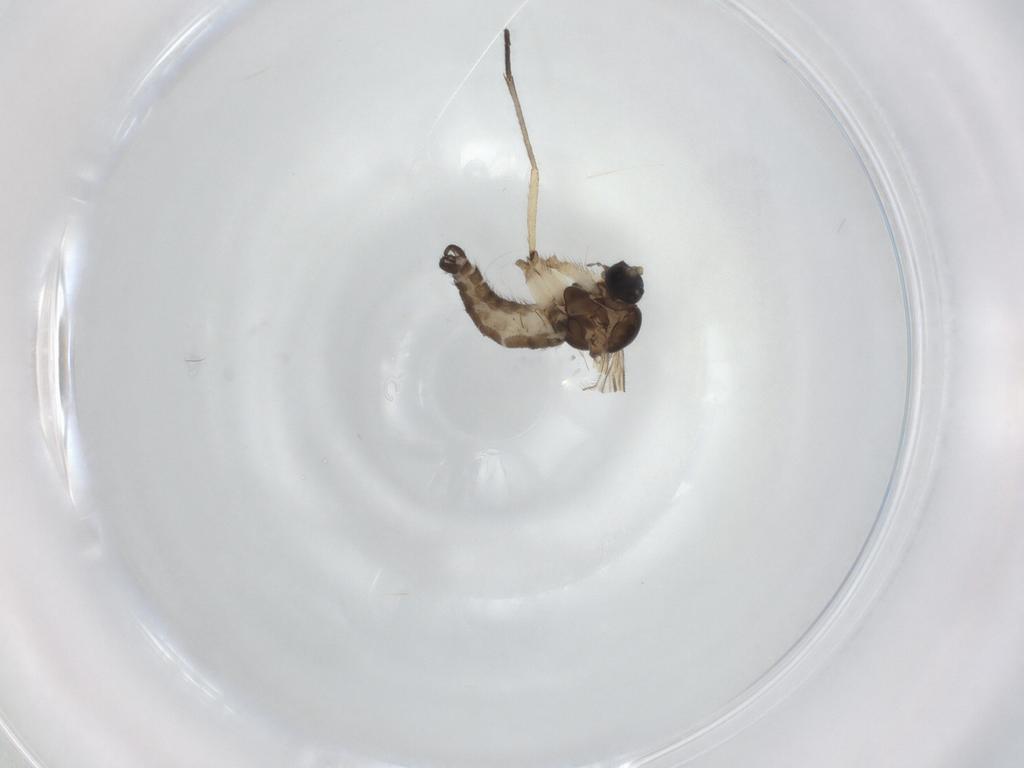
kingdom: Animalia
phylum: Arthropoda
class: Insecta
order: Diptera
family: Sciaridae
